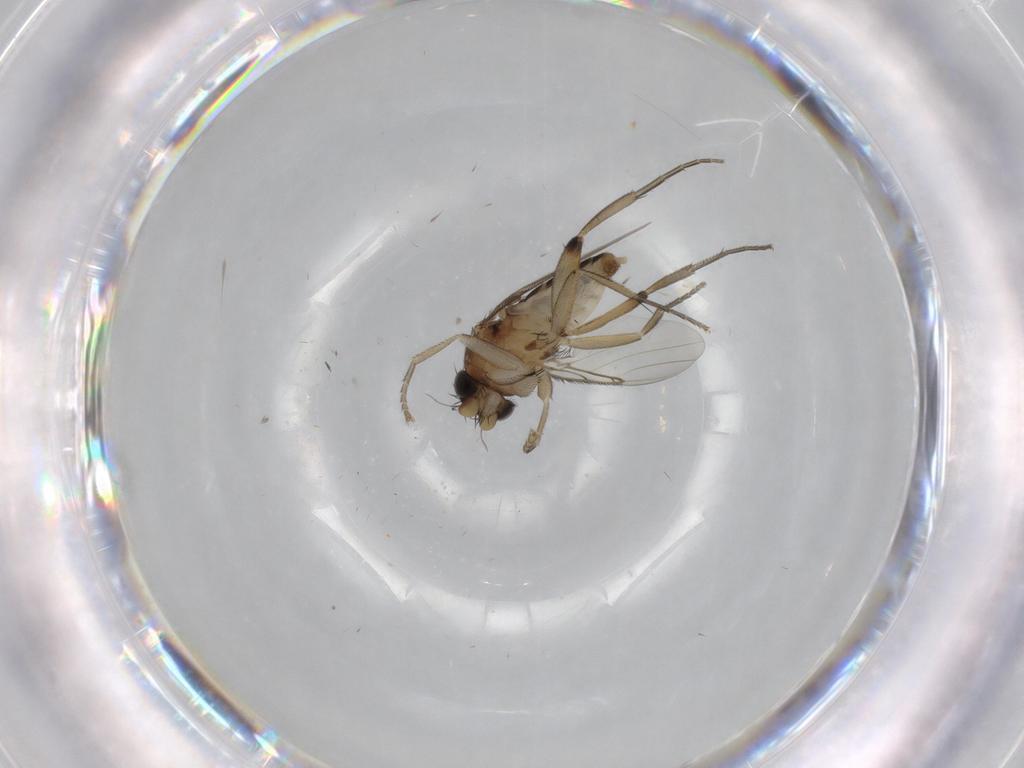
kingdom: Animalia
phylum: Arthropoda
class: Insecta
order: Diptera
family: Phoridae
